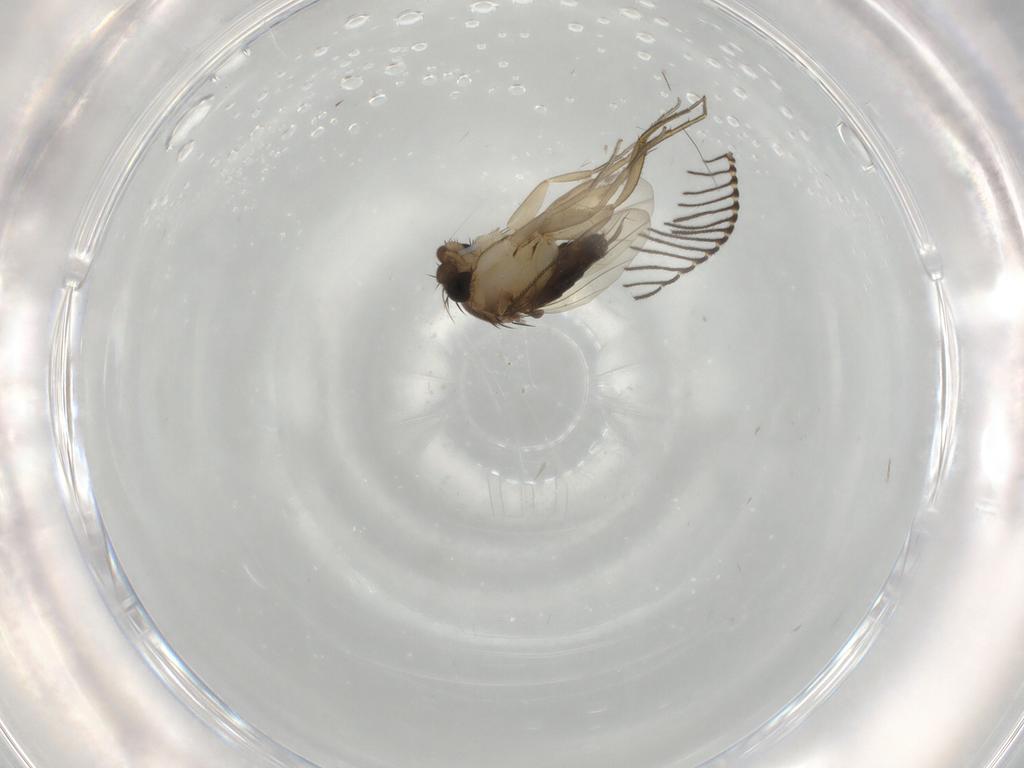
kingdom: Animalia
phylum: Arthropoda
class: Insecta
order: Diptera
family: Phoridae
